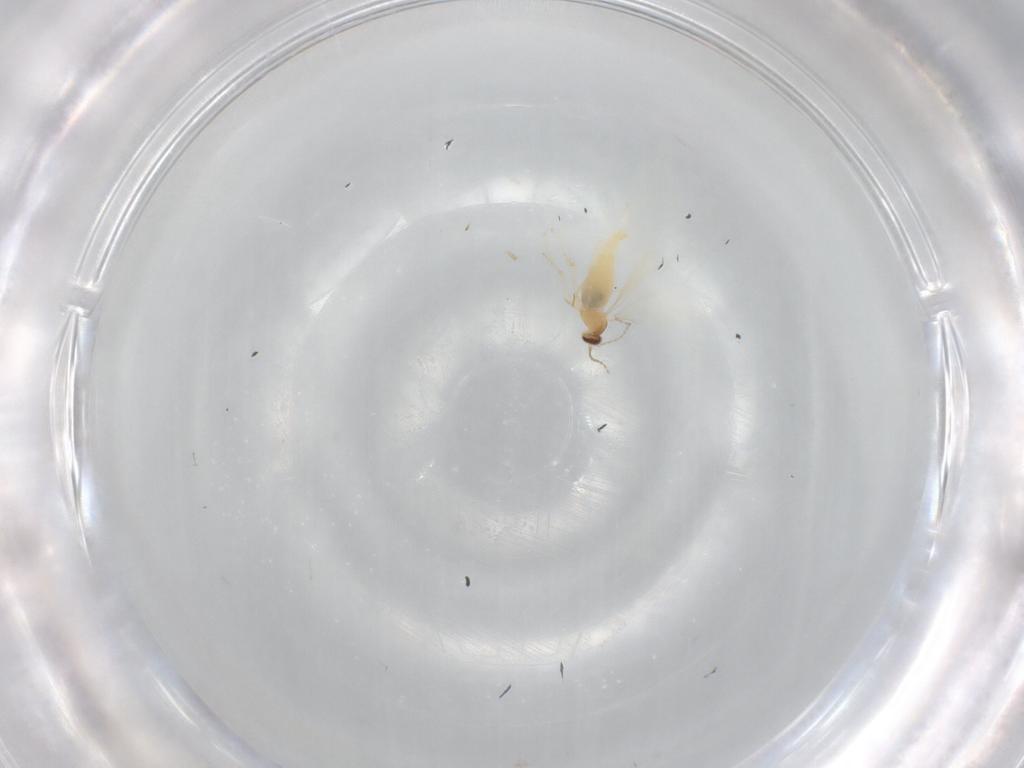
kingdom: Animalia
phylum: Arthropoda
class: Insecta
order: Diptera
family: Cecidomyiidae
